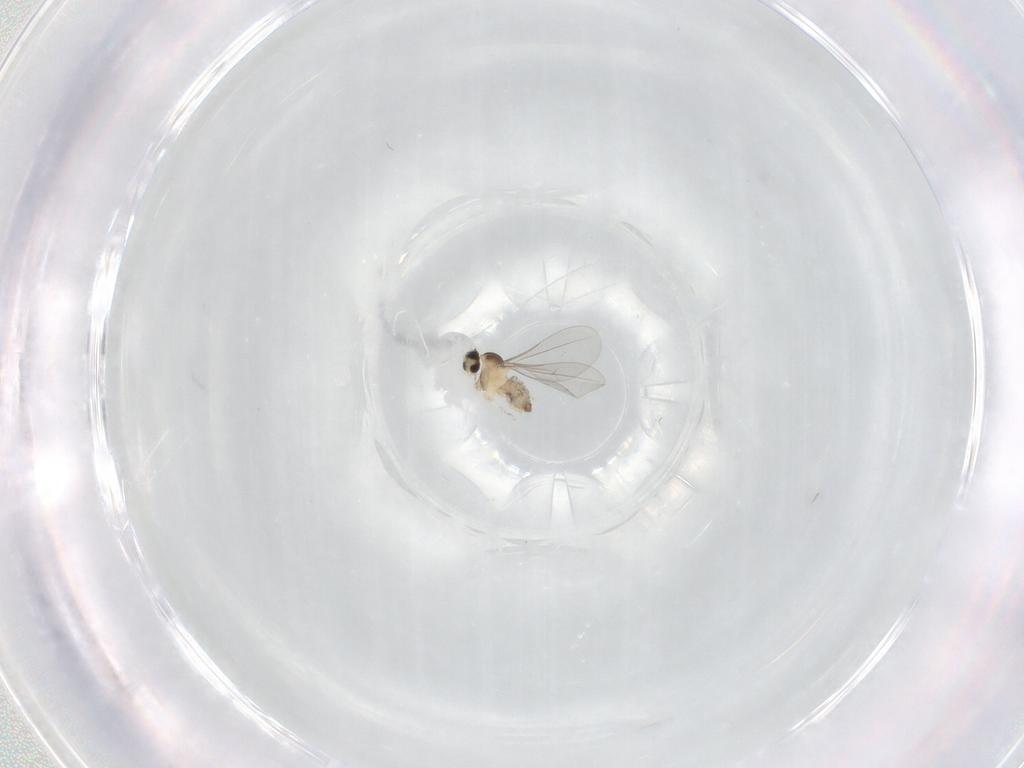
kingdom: Animalia
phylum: Arthropoda
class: Insecta
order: Diptera
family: Cecidomyiidae
